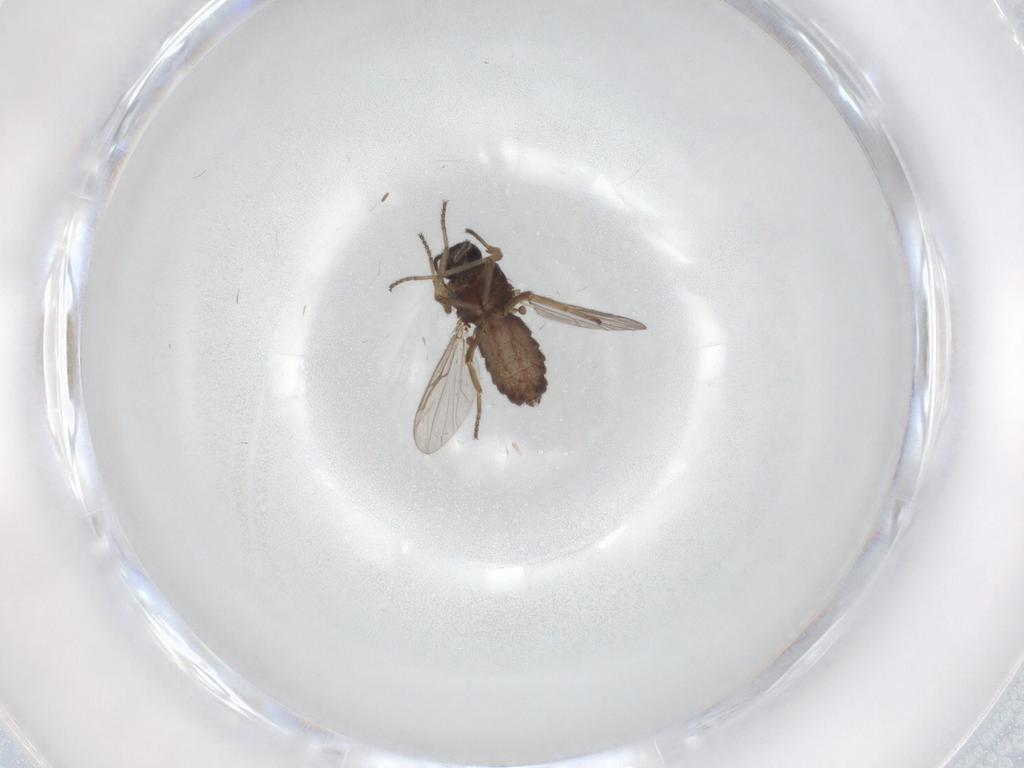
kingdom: Animalia
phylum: Arthropoda
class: Insecta
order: Diptera
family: Ceratopogonidae
